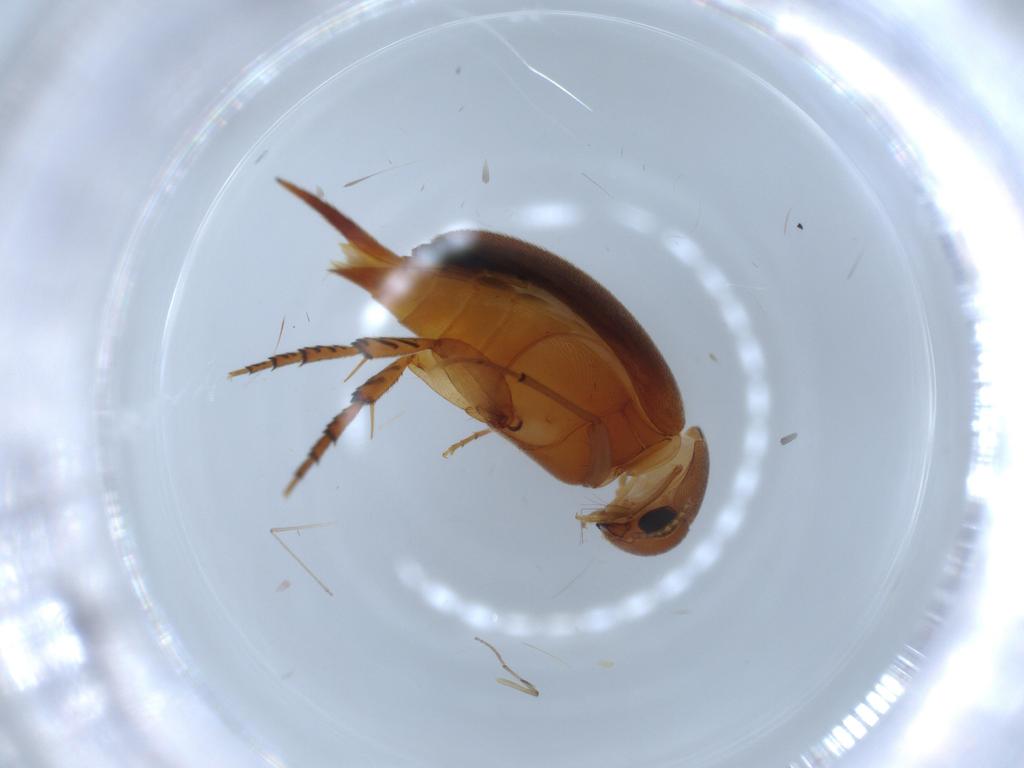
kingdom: Animalia
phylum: Arthropoda
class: Insecta
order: Coleoptera
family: Mordellidae
